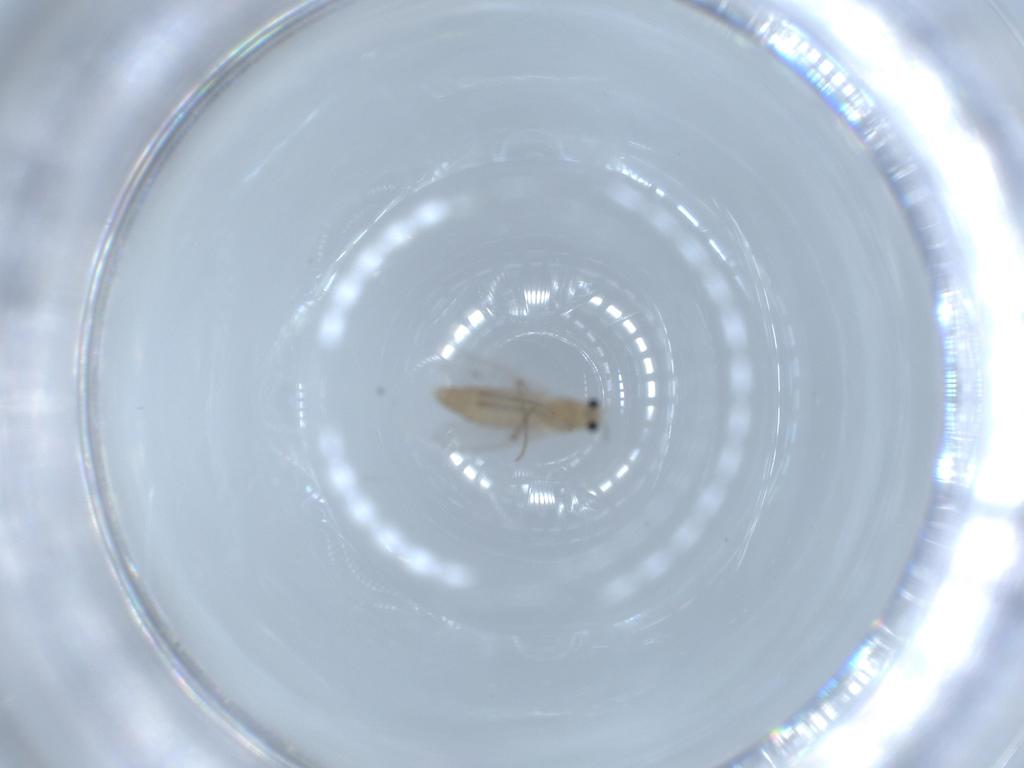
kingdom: Animalia
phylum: Arthropoda
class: Insecta
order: Diptera
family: Chironomidae
